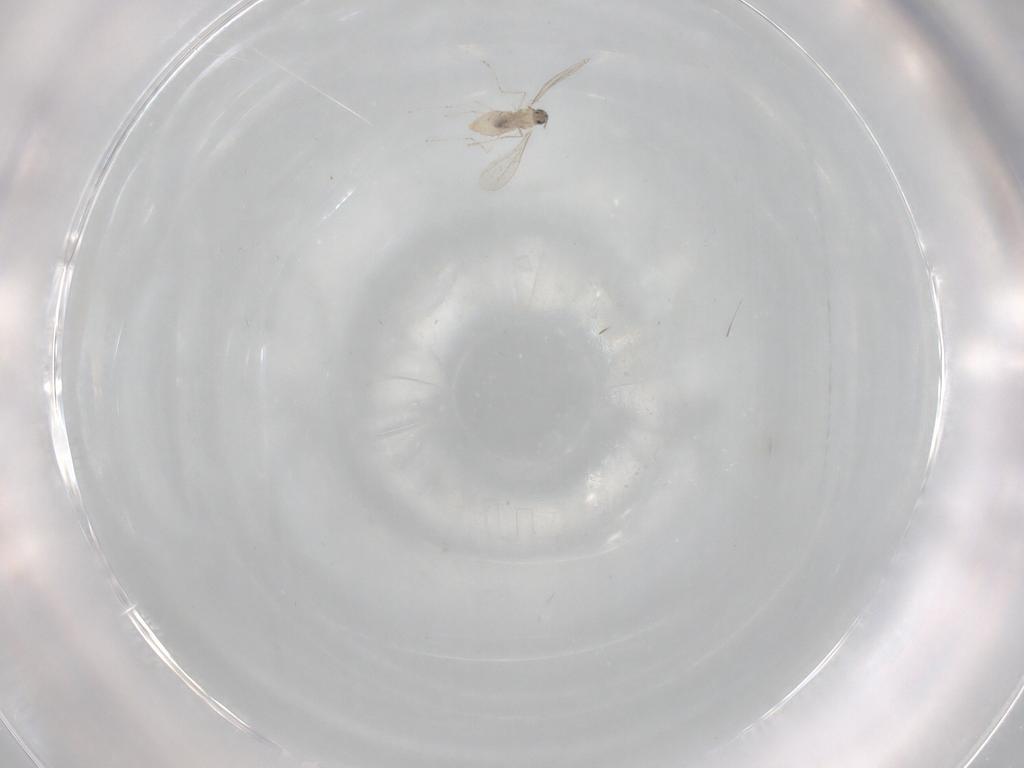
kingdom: Animalia
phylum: Arthropoda
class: Insecta
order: Diptera
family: Cecidomyiidae
